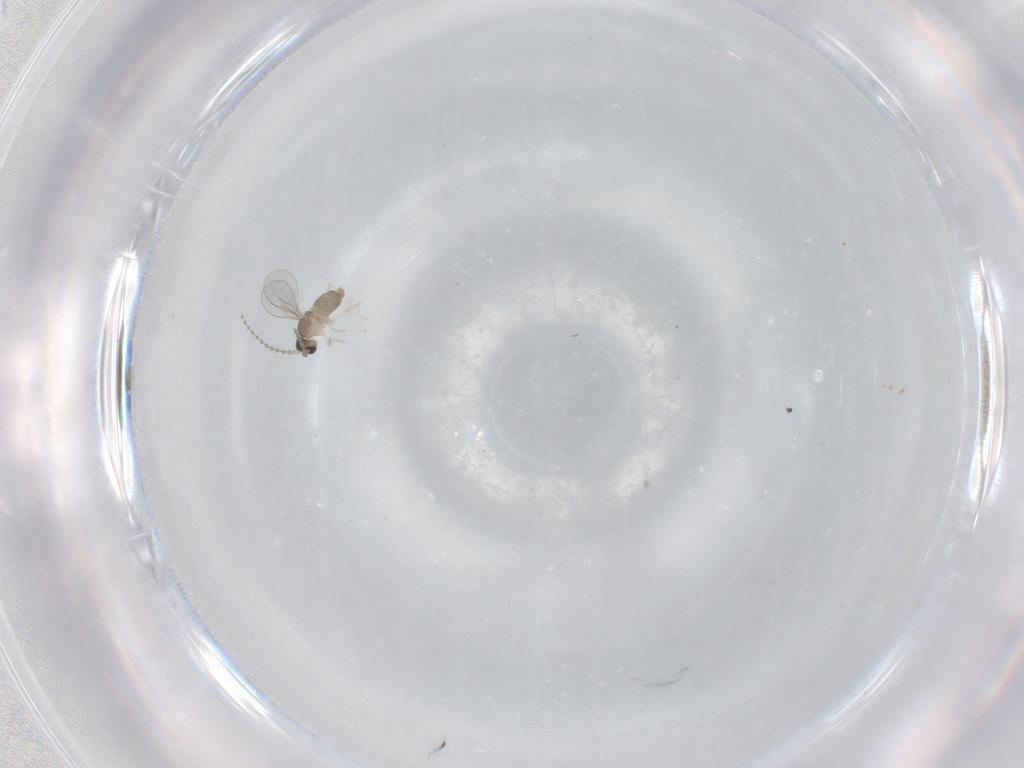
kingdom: Animalia
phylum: Arthropoda
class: Insecta
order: Diptera
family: Cecidomyiidae
